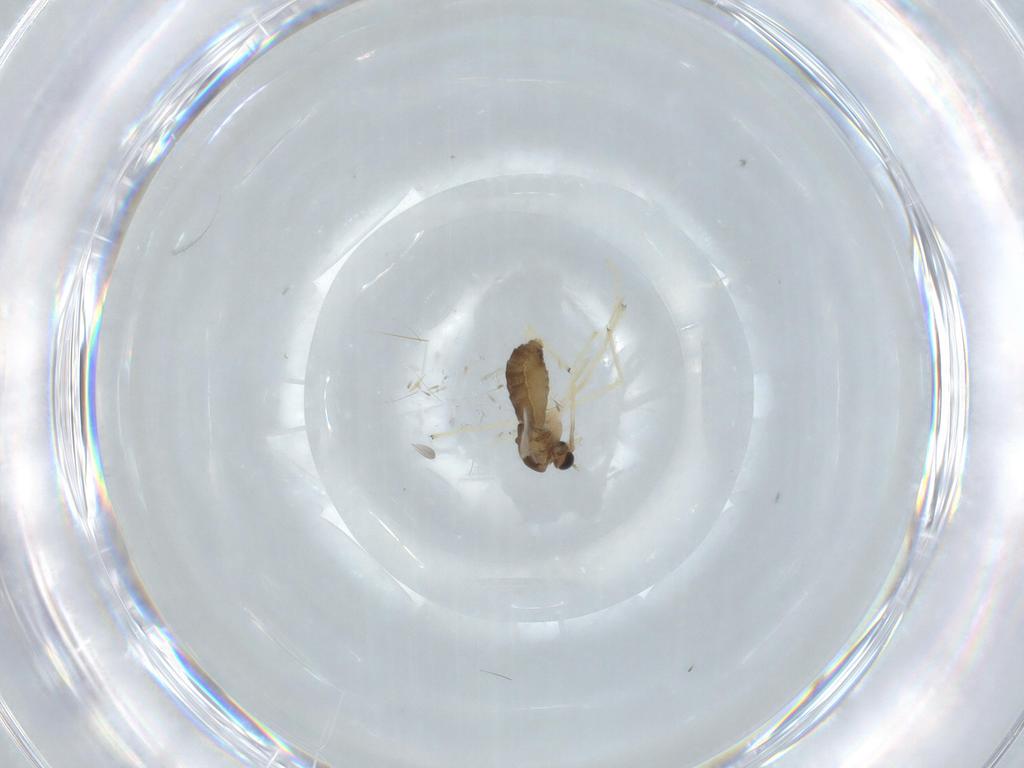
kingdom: Animalia
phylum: Arthropoda
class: Insecta
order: Diptera
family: Chironomidae
